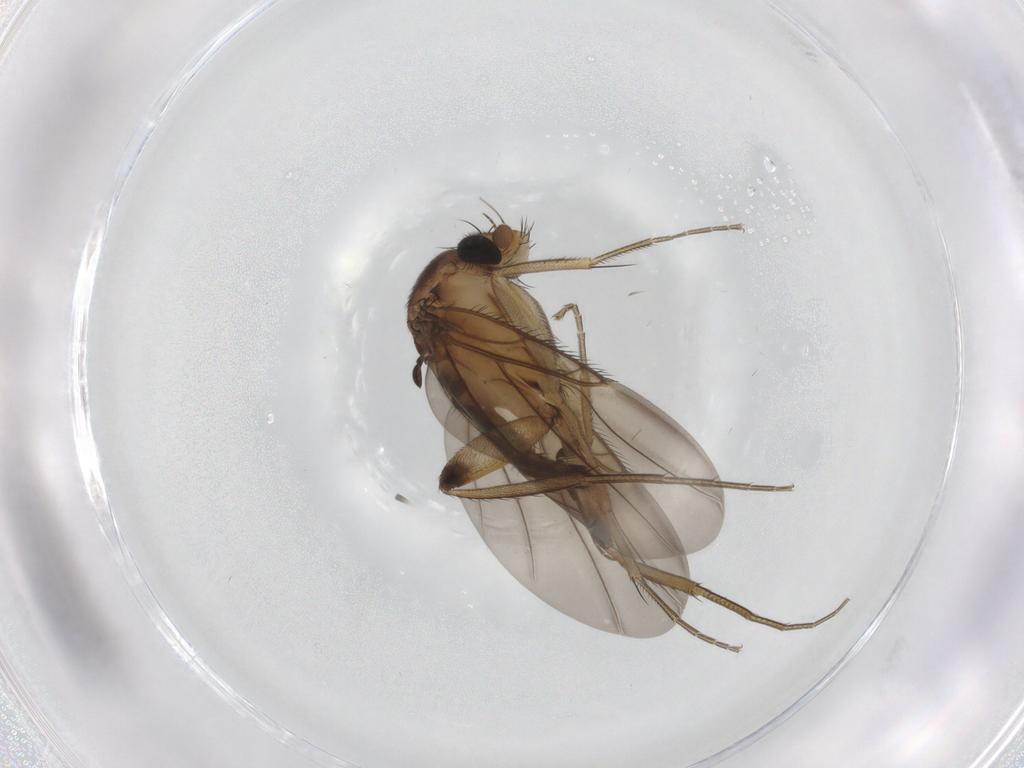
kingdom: Animalia
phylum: Arthropoda
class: Insecta
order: Diptera
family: Phoridae
